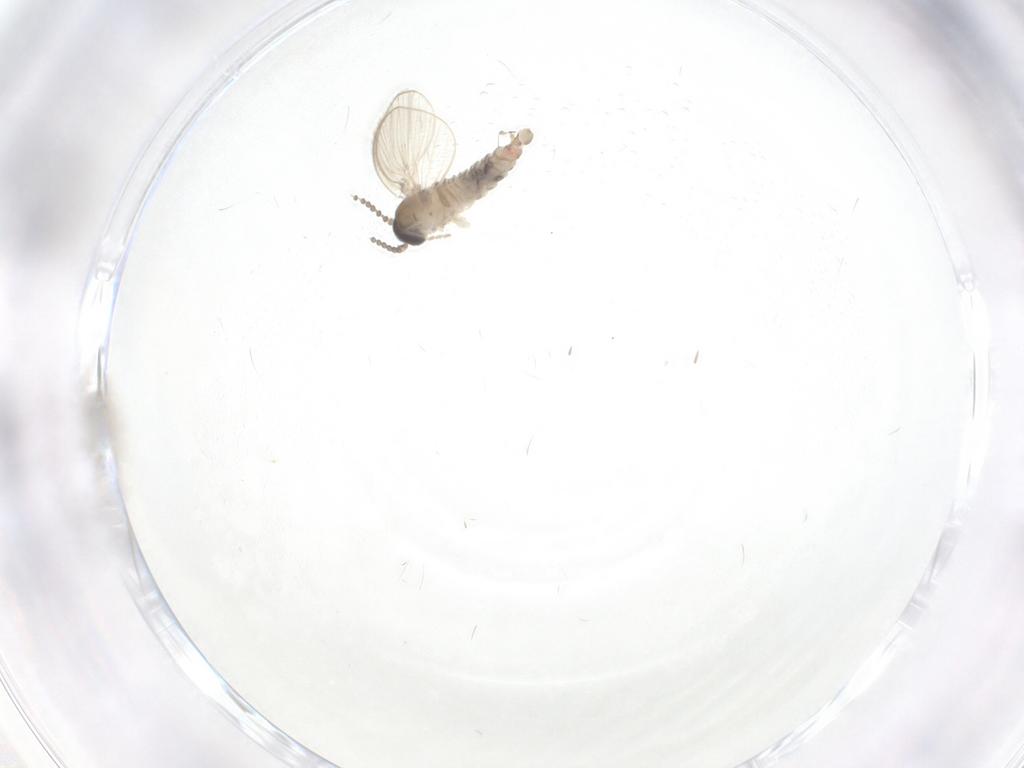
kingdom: Animalia
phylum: Arthropoda
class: Insecta
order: Diptera
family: Psychodidae
